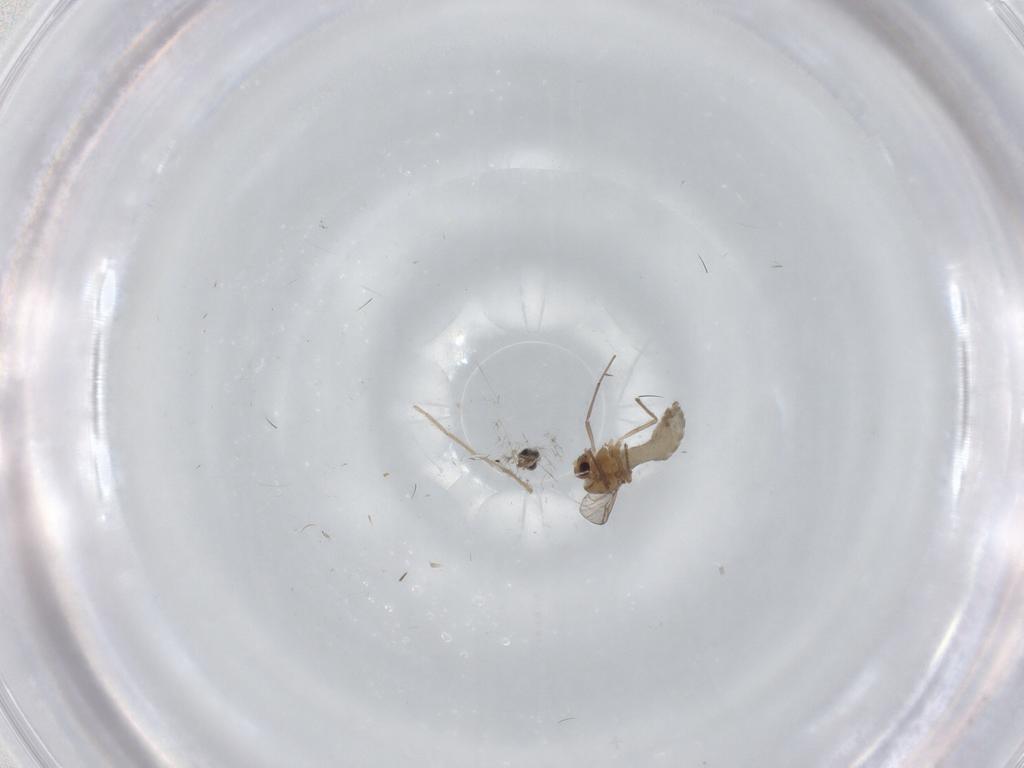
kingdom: Animalia
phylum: Arthropoda
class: Insecta
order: Diptera
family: Chironomidae
